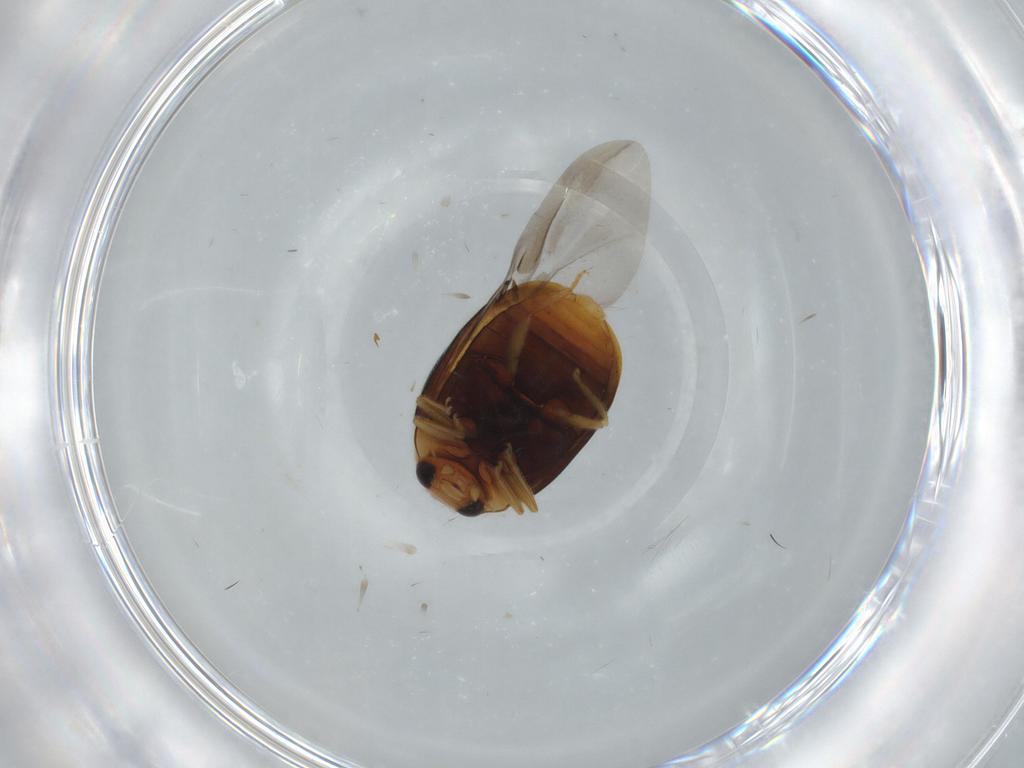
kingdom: Animalia
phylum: Arthropoda
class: Insecta
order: Coleoptera
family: Coccinellidae
